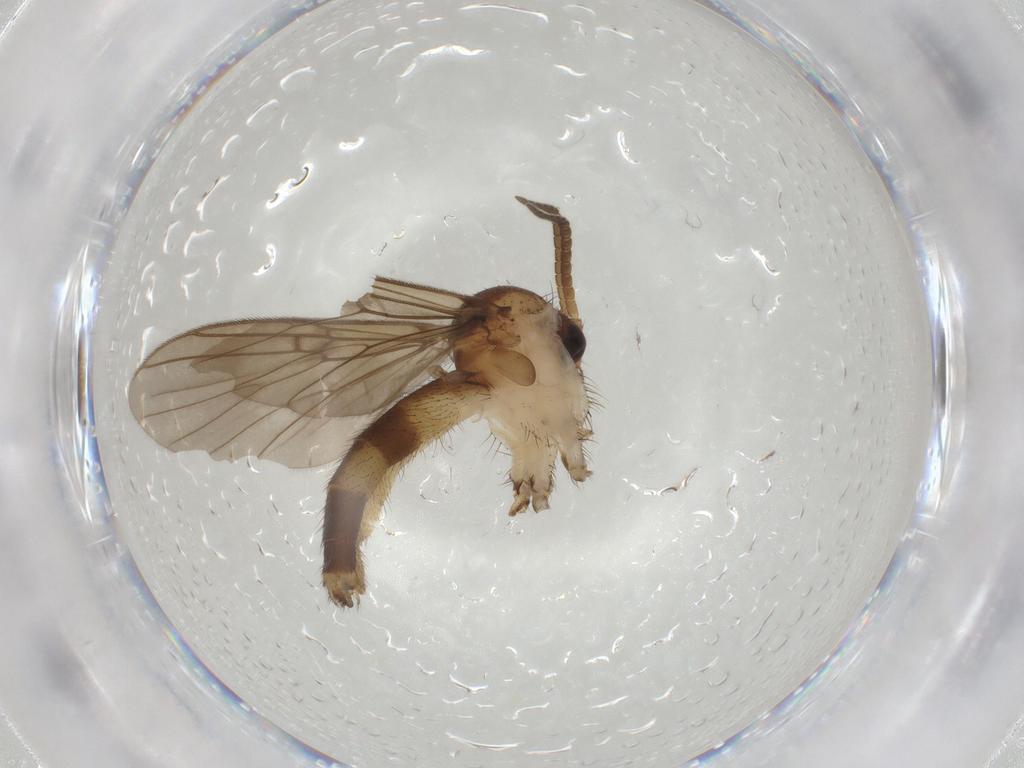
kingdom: Animalia
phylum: Arthropoda
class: Insecta
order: Diptera
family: Mycetophilidae
